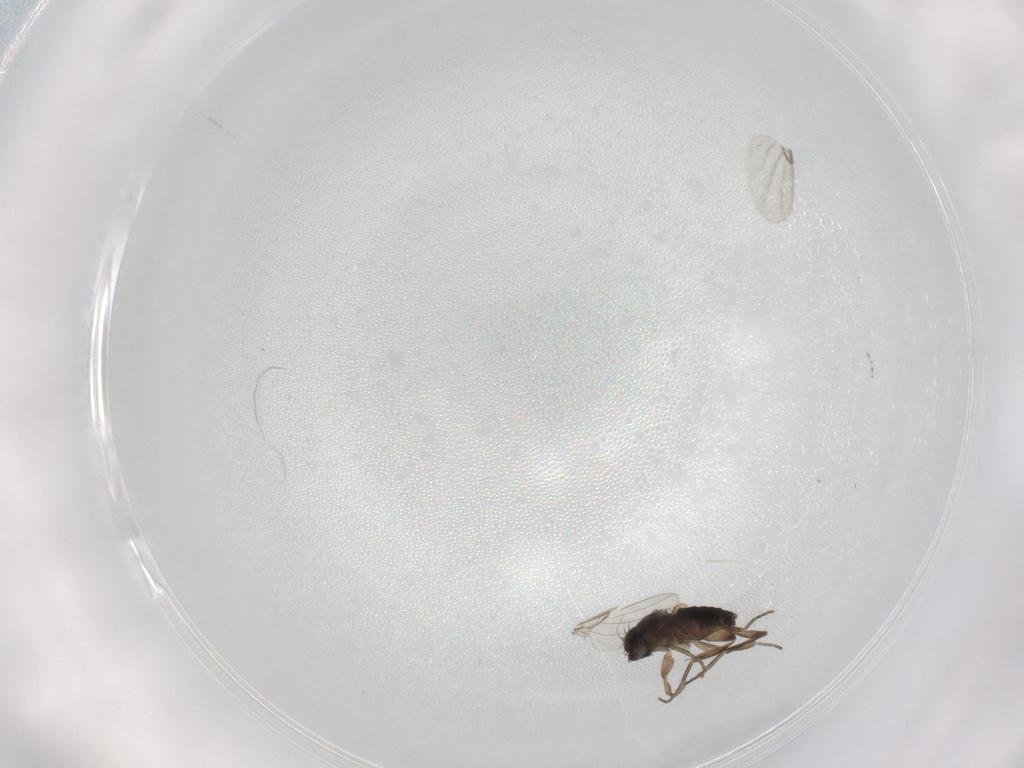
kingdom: Animalia
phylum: Arthropoda
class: Insecta
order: Diptera
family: Phoridae
